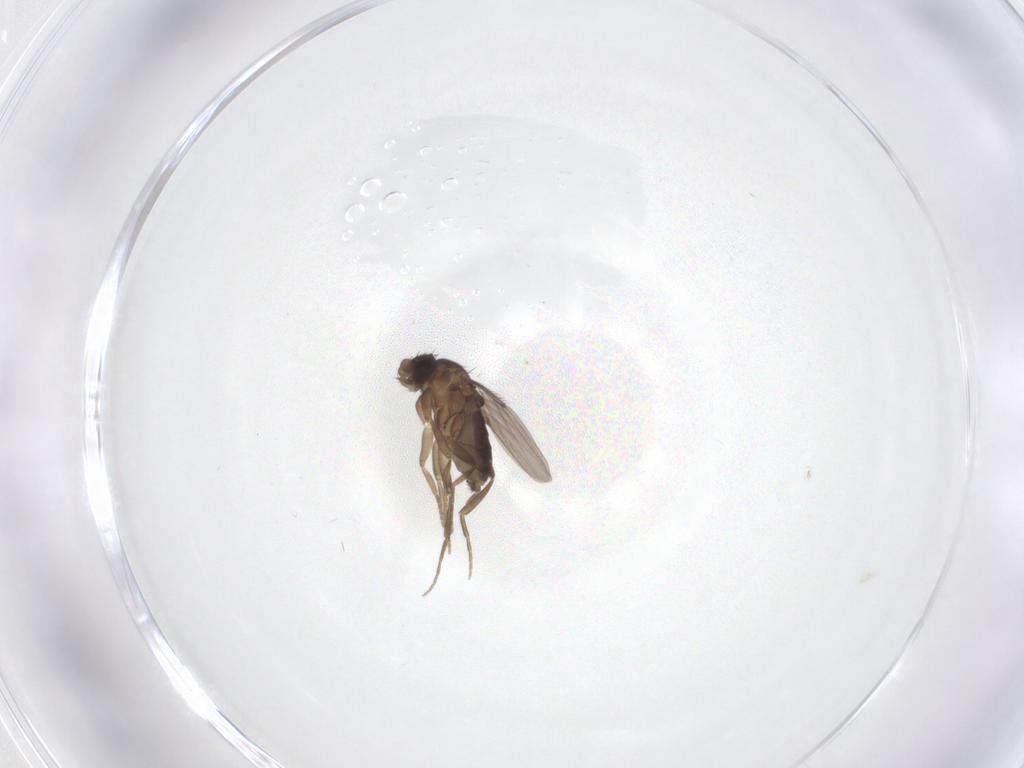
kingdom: Animalia
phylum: Arthropoda
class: Insecta
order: Diptera
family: Phoridae
